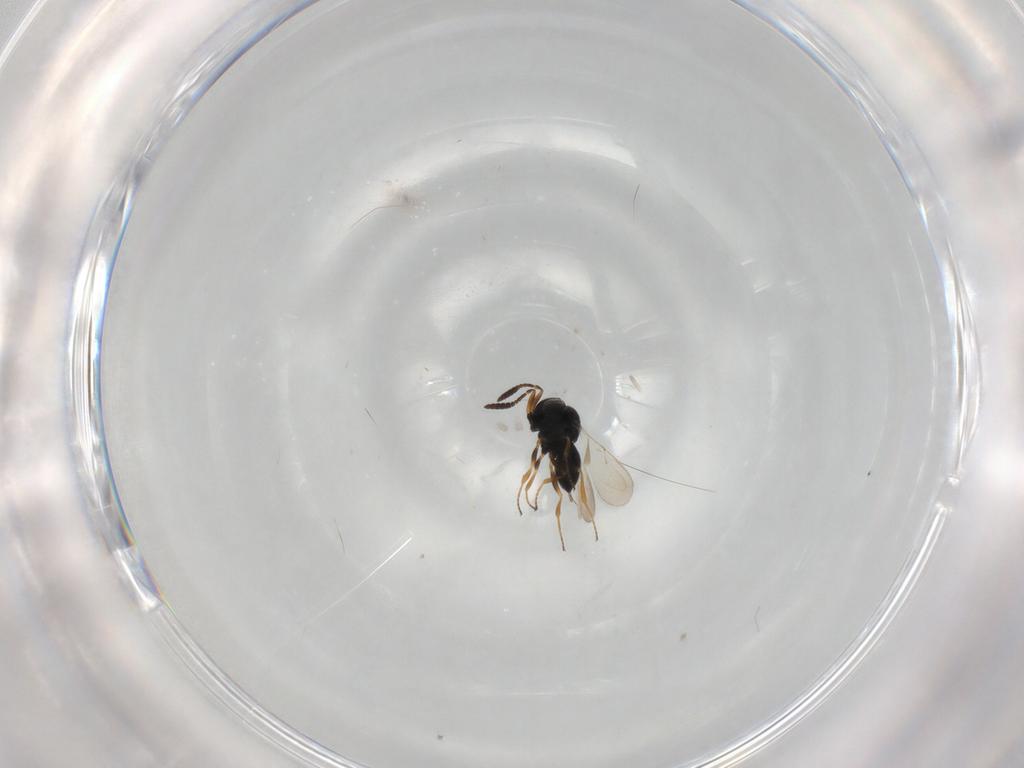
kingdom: Animalia
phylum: Arthropoda
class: Insecta
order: Hymenoptera
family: Scelionidae
